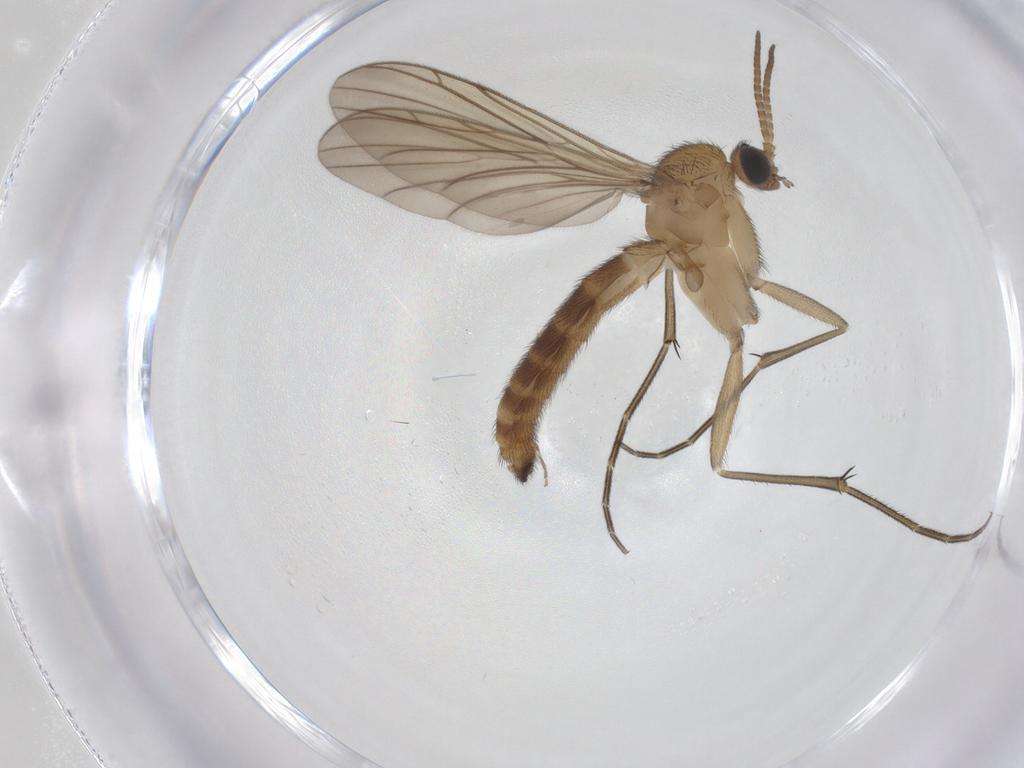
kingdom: Animalia
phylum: Arthropoda
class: Insecta
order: Diptera
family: Keroplatidae
